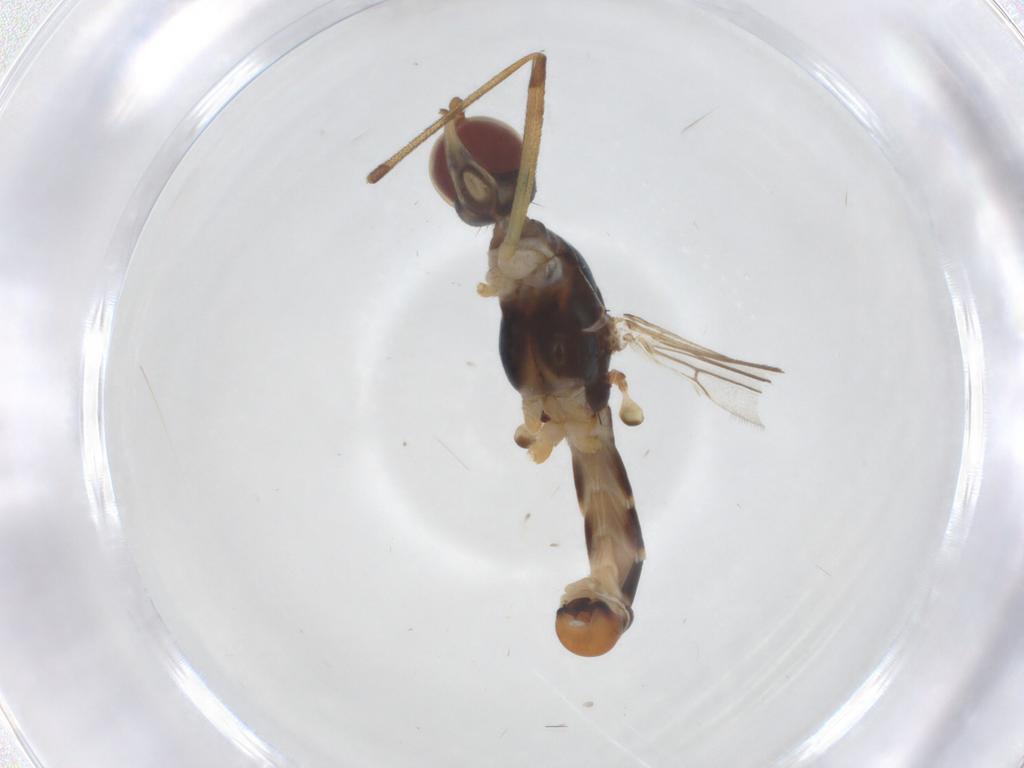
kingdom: Animalia
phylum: Arthropoda
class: Insecta
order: Diptera
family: Micropezidae
